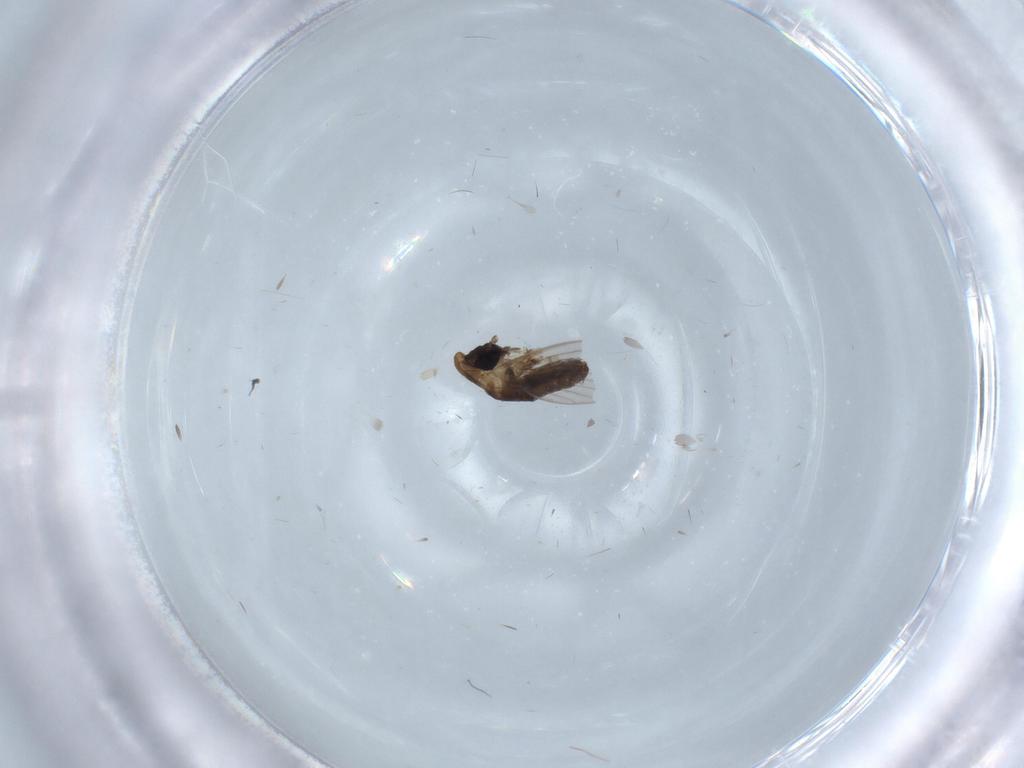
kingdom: Animalia
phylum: Arthropoda
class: Insecta
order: Diptera
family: Psychodidae
